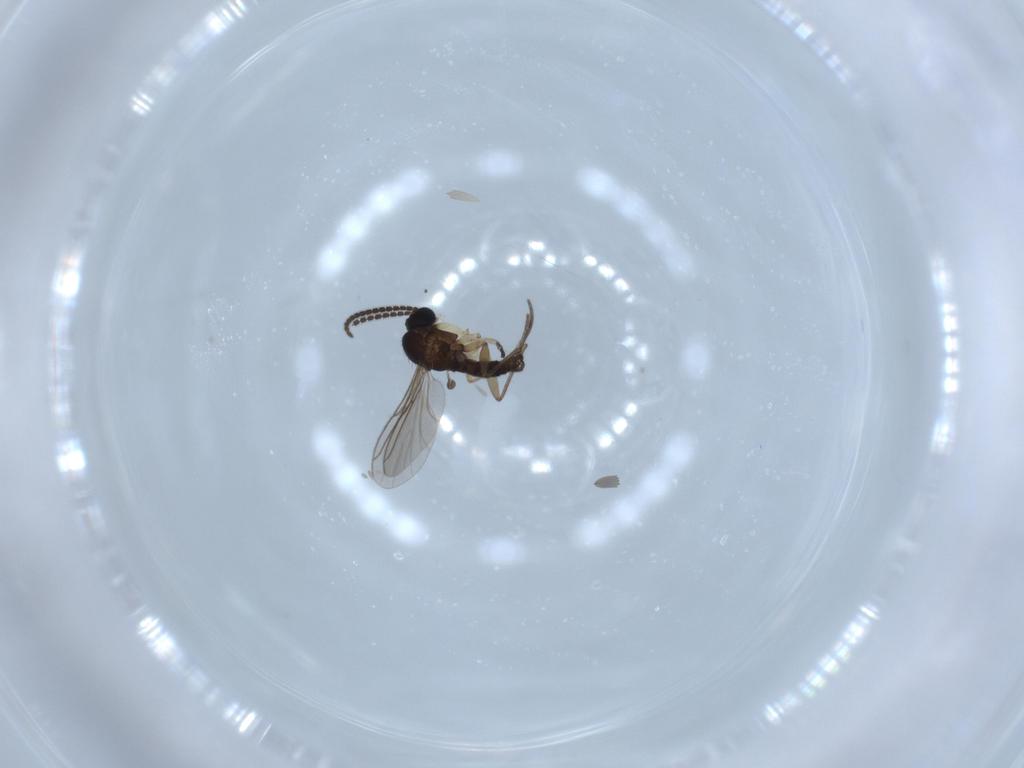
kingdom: Animalia
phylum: Arthropoda
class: Insecta
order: Diptera
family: Sciaridae
